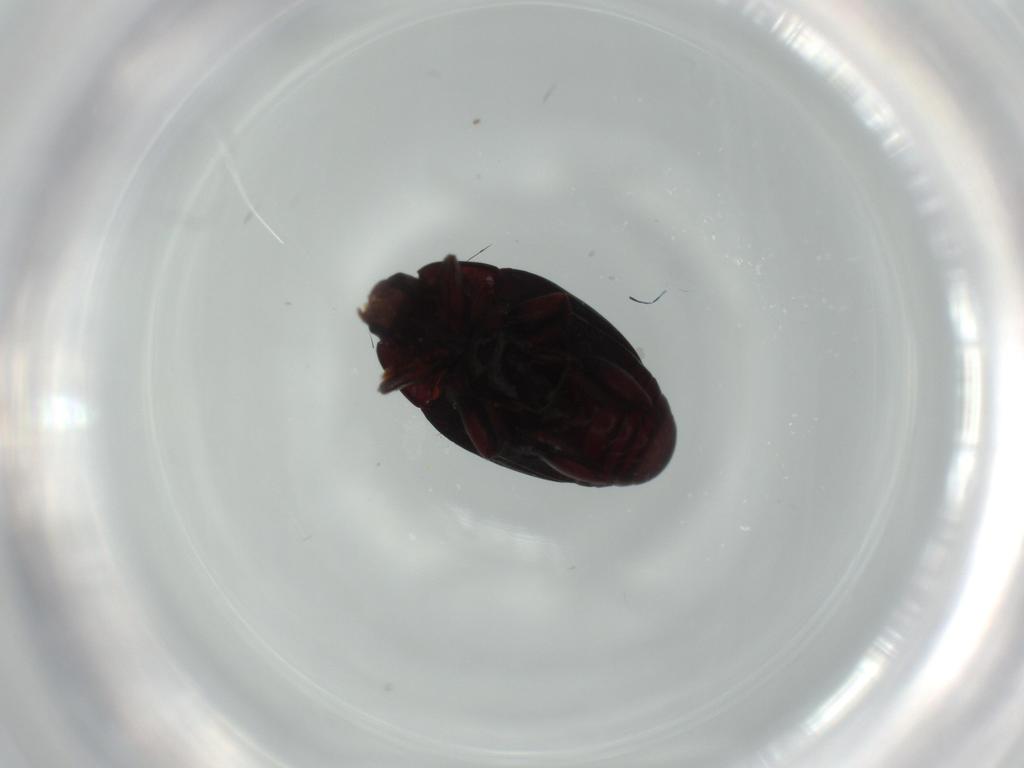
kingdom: Animalia
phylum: Arthropoda
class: Insecta
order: Coleoptera
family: Histeridae
